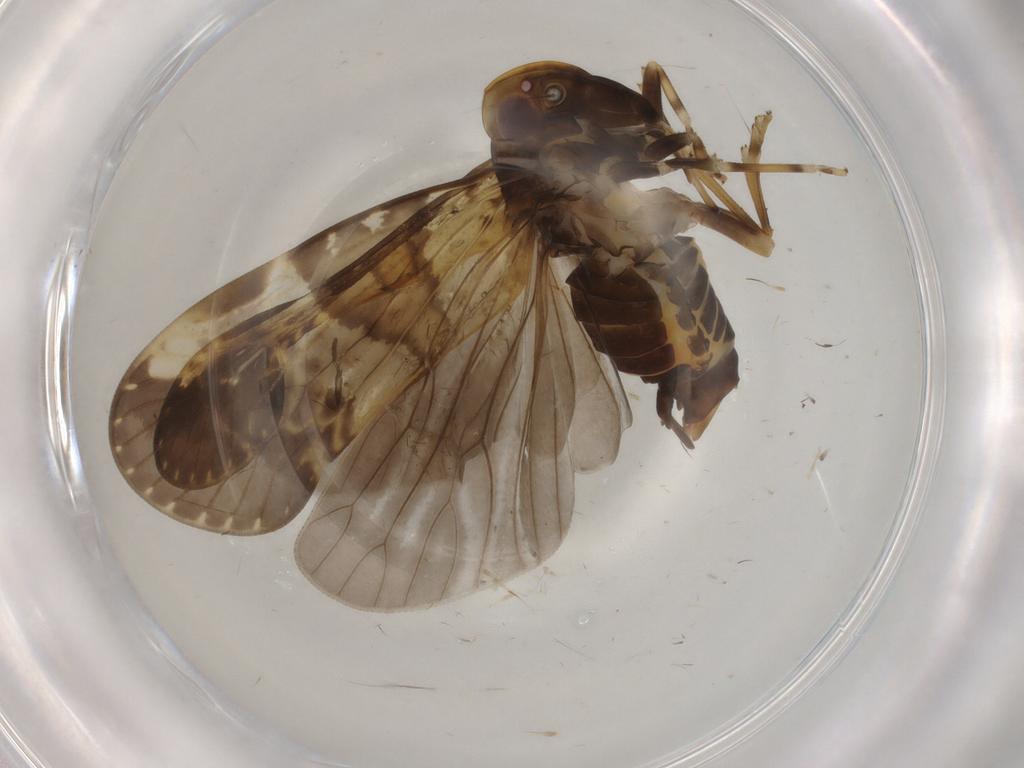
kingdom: Animalia
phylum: Arthropoda
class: Insecta
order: Hemiptera
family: Cixiidae
